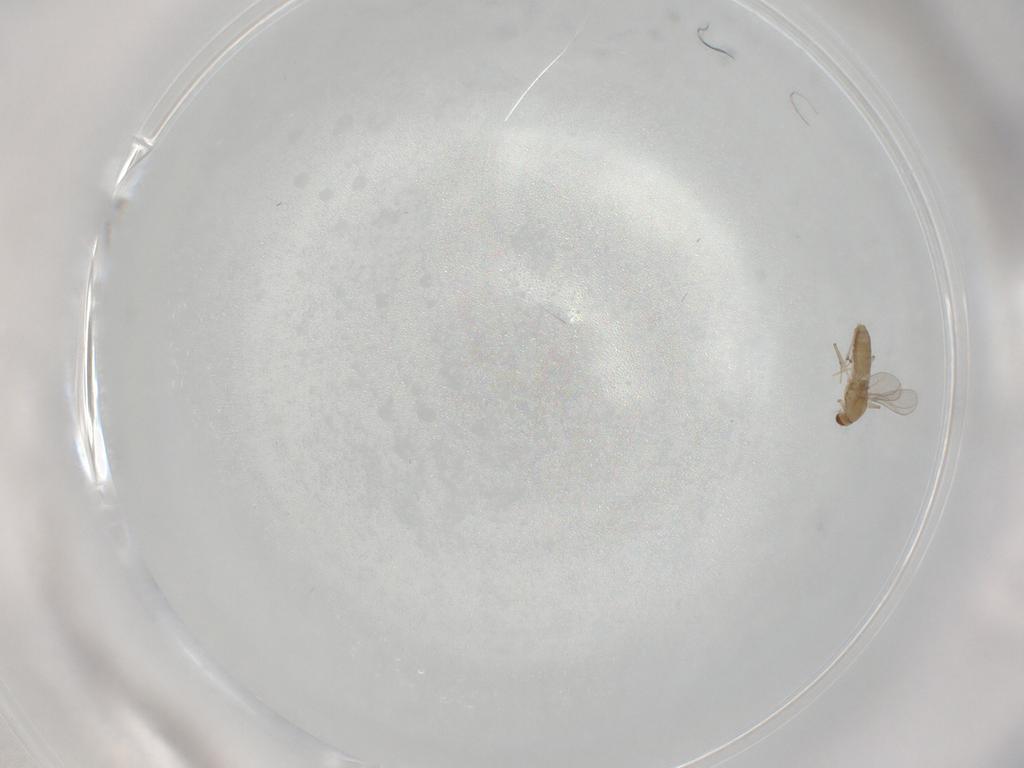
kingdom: Animalia
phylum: Arthropoda
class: Insecta
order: Diptera
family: Chironomidae
